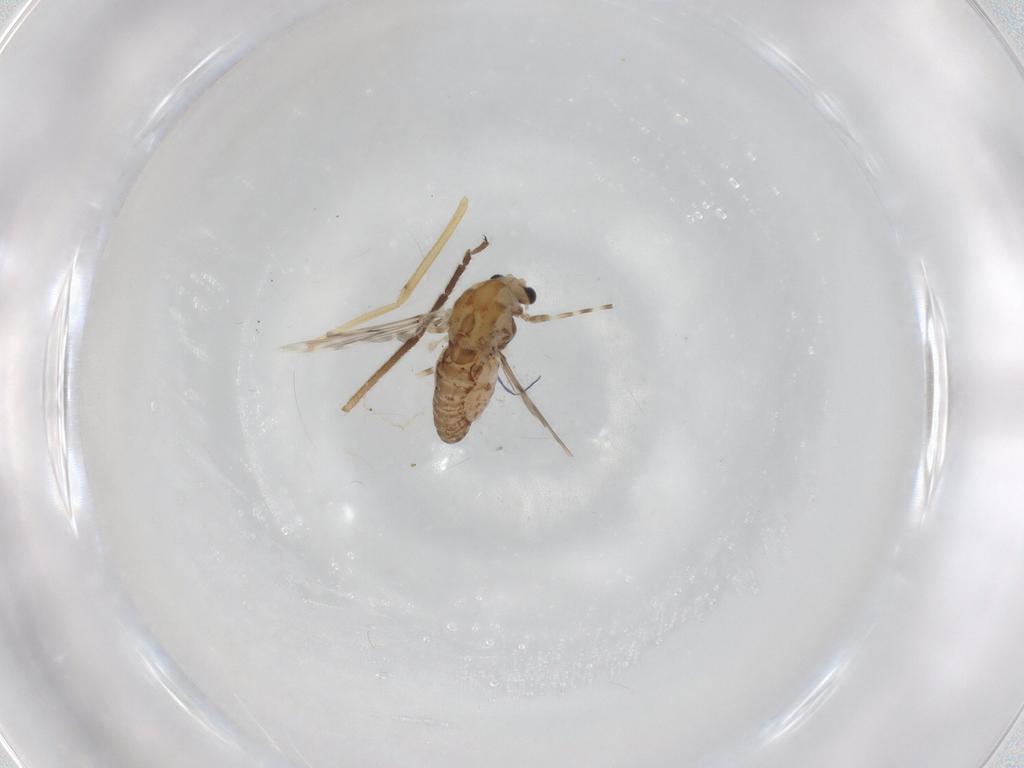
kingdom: Animalia
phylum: Arthropoda
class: Insecta
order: Diptera
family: Chironomidae
